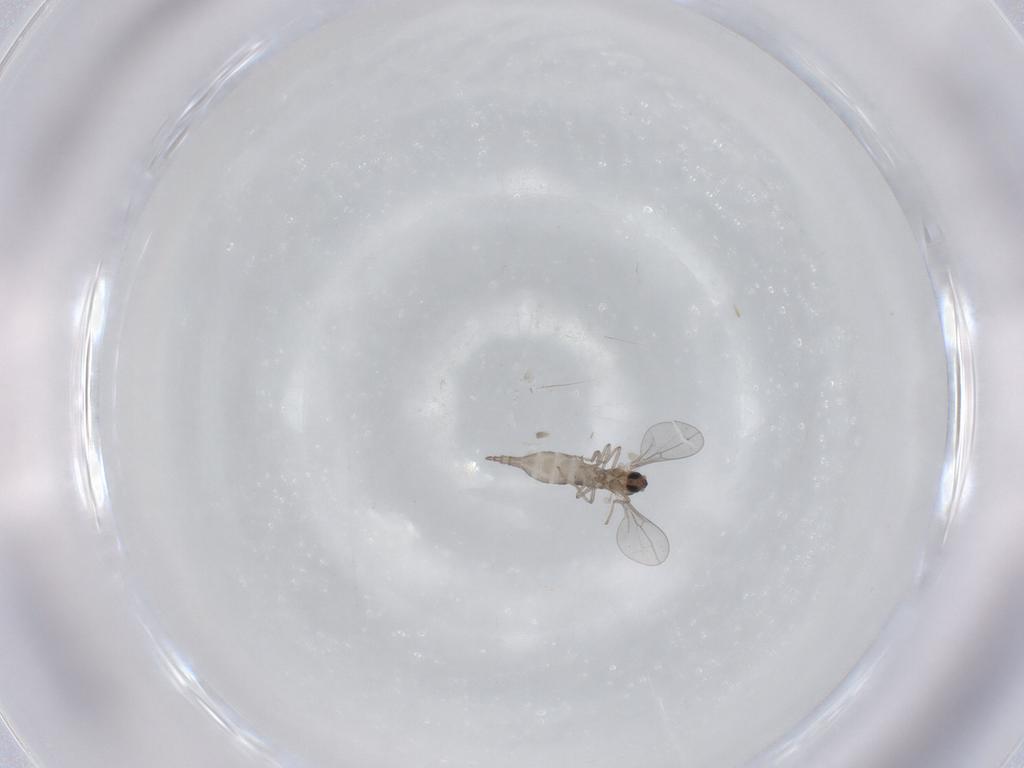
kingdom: Animalia
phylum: Arthropoda
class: Insecta
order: Diptera
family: Cecidomyiidae
